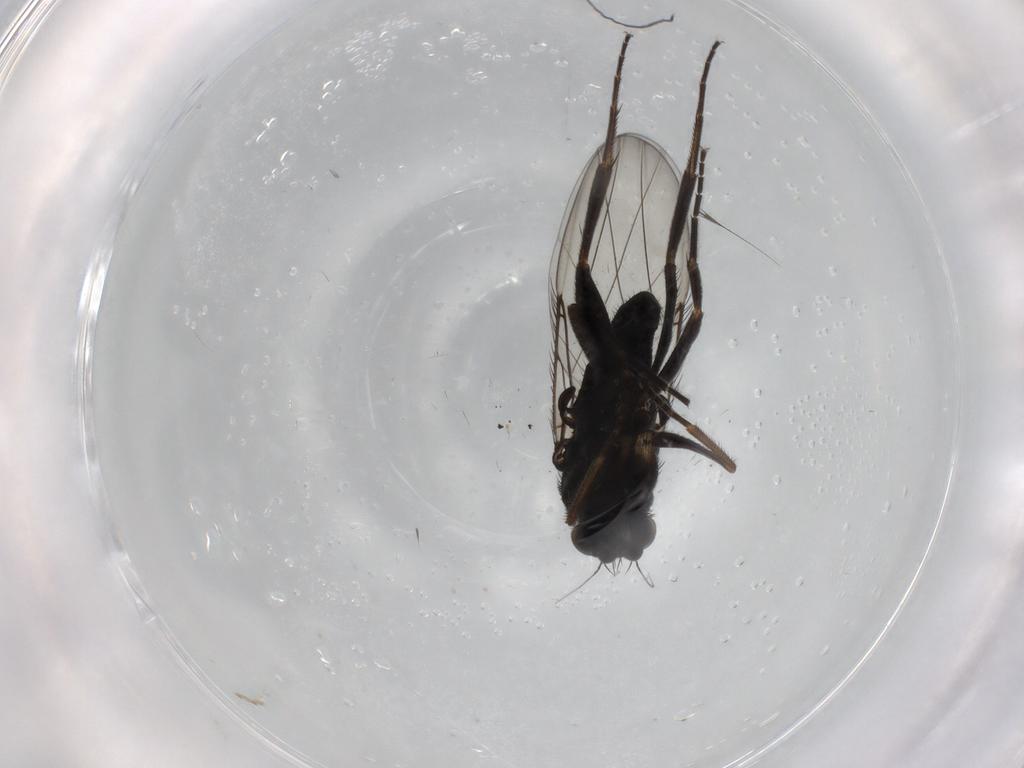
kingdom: Animalia
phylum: Arthropoda
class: Insecta
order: Diptera
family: Phoridae
